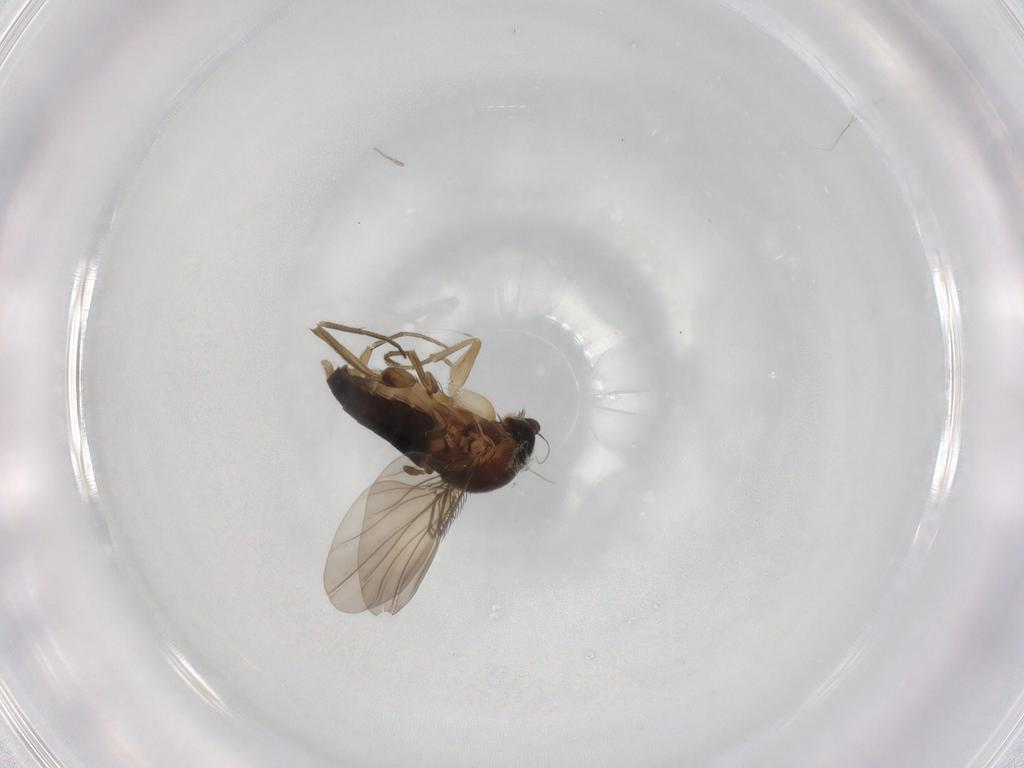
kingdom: Animalia
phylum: Arthropoda
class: Insecta
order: Diptera
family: Phoridae
